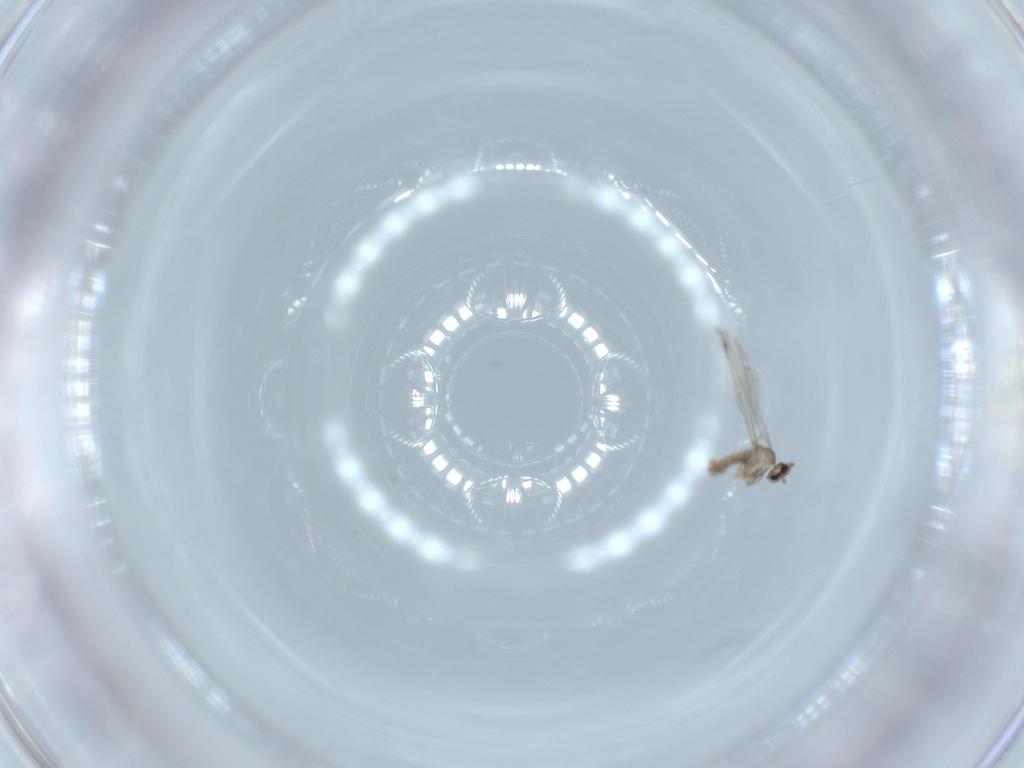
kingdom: Animalia
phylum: Arthropoda
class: Insecta
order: Diptera
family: Cecidomyiidae
